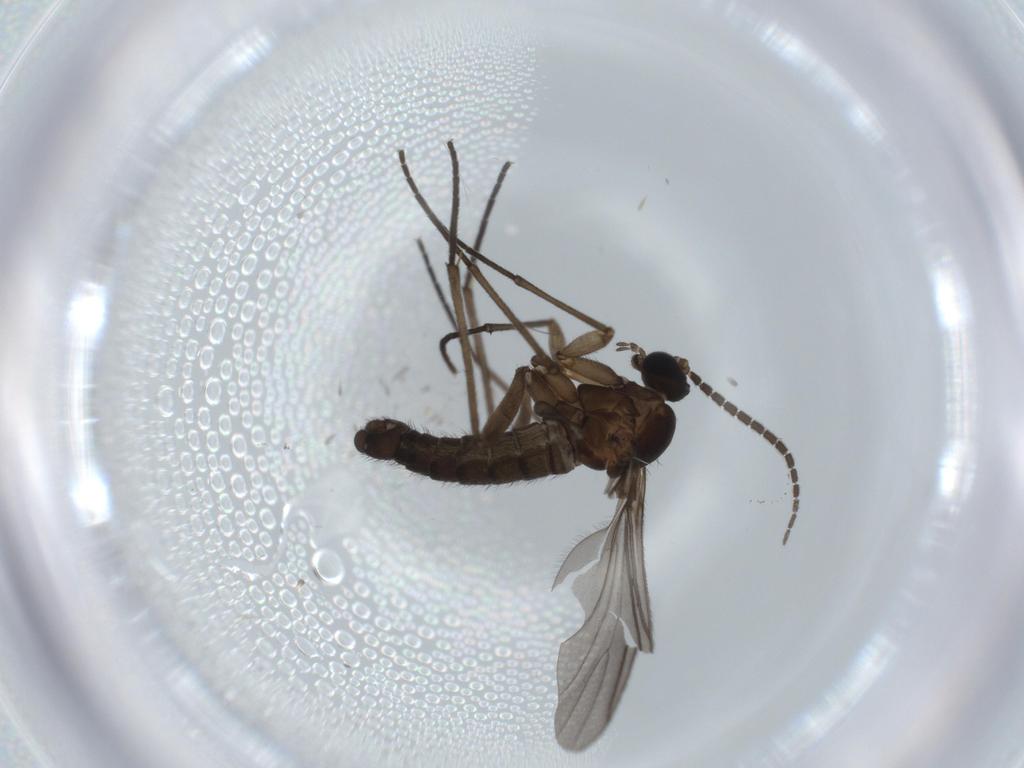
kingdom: Animalia
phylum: Arthropoda
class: Insecta
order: Diptera
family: Sciaridae
